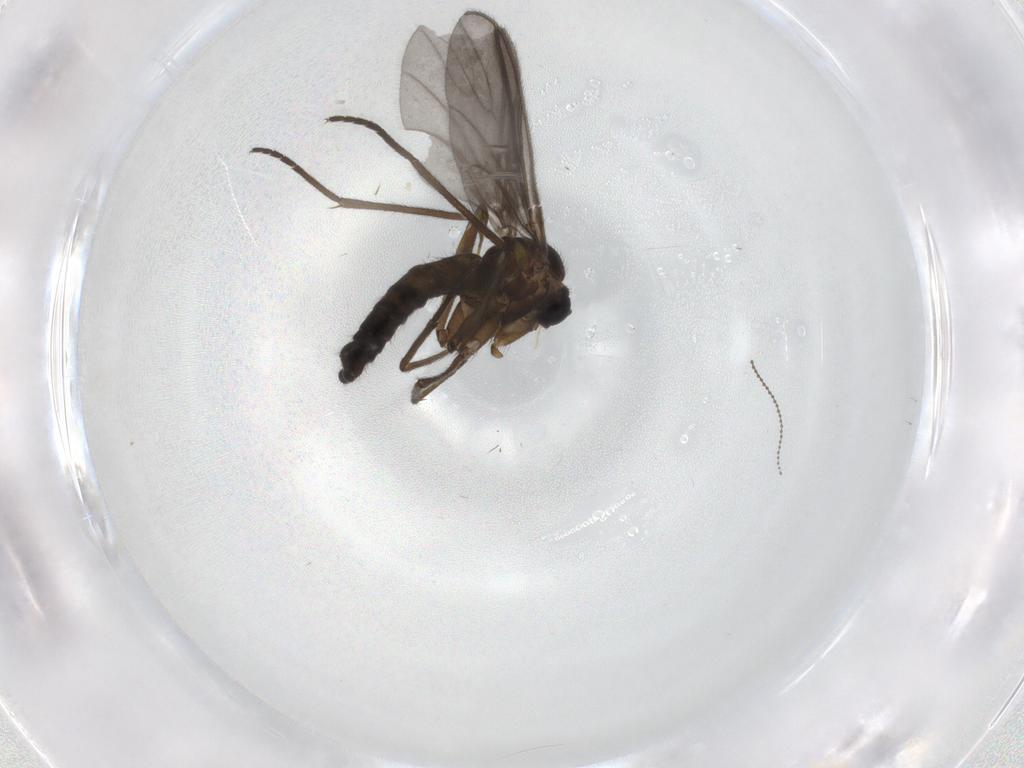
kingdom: Animalia
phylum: Arthropoda
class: Insecta
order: Diptera
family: Sciaridae
